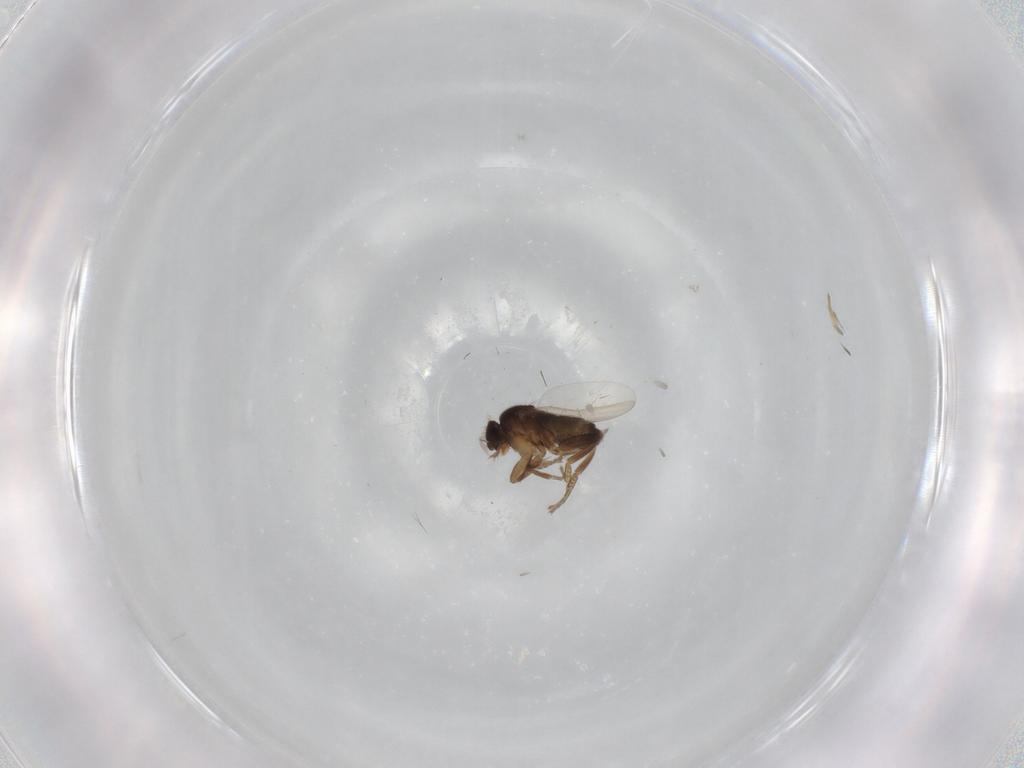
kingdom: Animalia
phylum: Arthropoda
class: Insecta
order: Diptera
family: Phoridae
